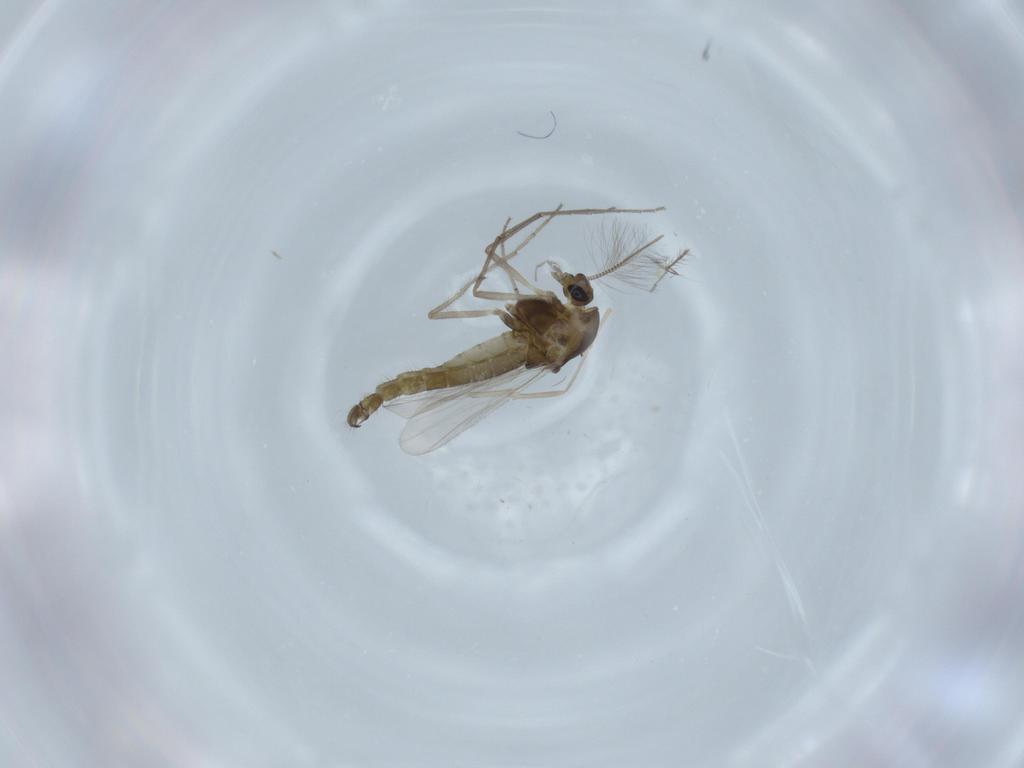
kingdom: Animalia
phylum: Arthropoda
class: Insecta
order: Diptera
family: Chironomidae
